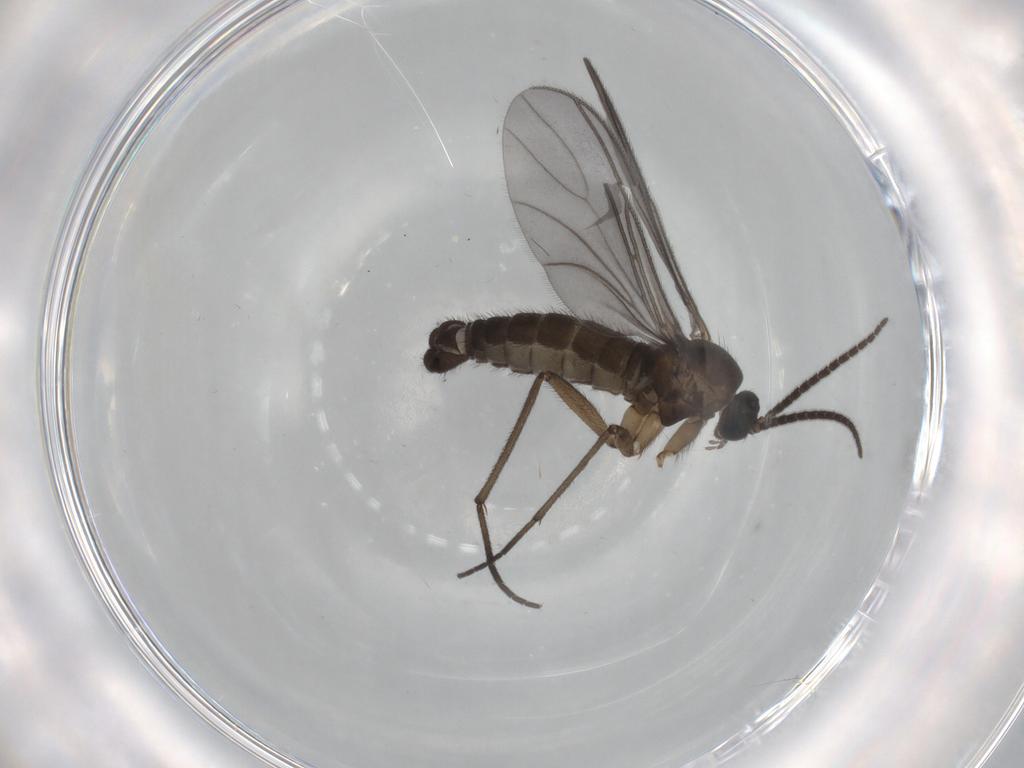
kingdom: Animalia
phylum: Arthropoda
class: Insecta
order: Diptera
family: Sciaridae
